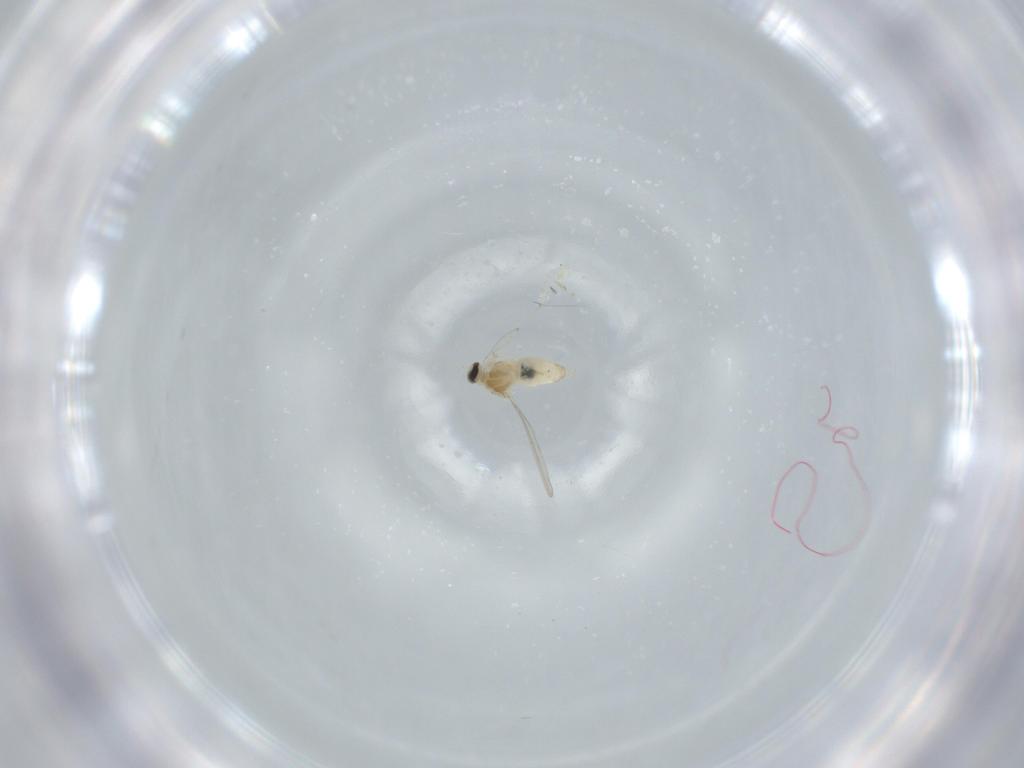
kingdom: Animalia
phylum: Arthropoda
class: Insecta
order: Diptera
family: Cecidomyiidae
